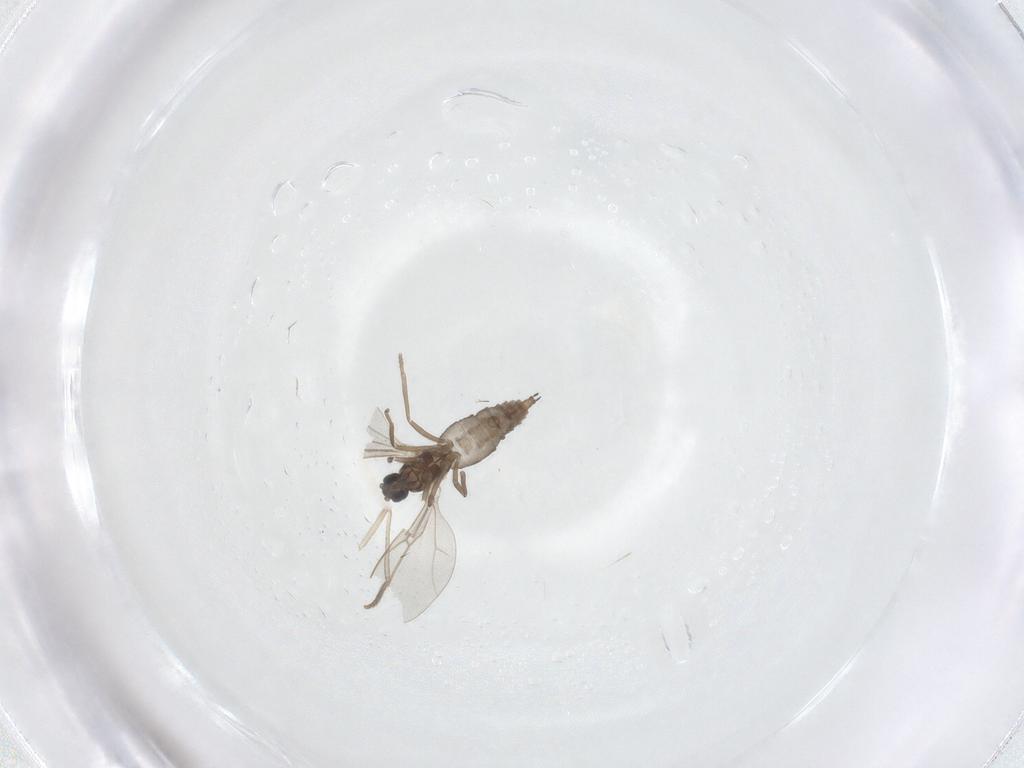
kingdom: Animalia
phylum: Arthropoda
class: Insecta
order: Diptera
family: Cecidomyiidae
